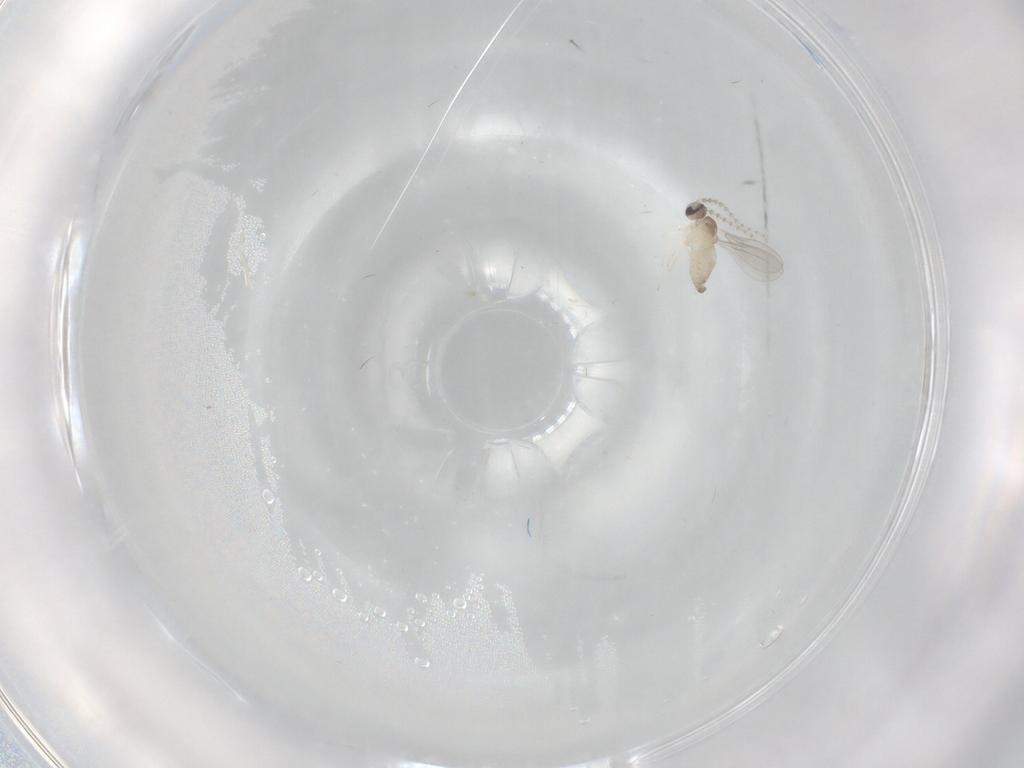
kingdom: Animalia
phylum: Arthropoda
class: Insecta
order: Diptera
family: Cecidomyiidae
